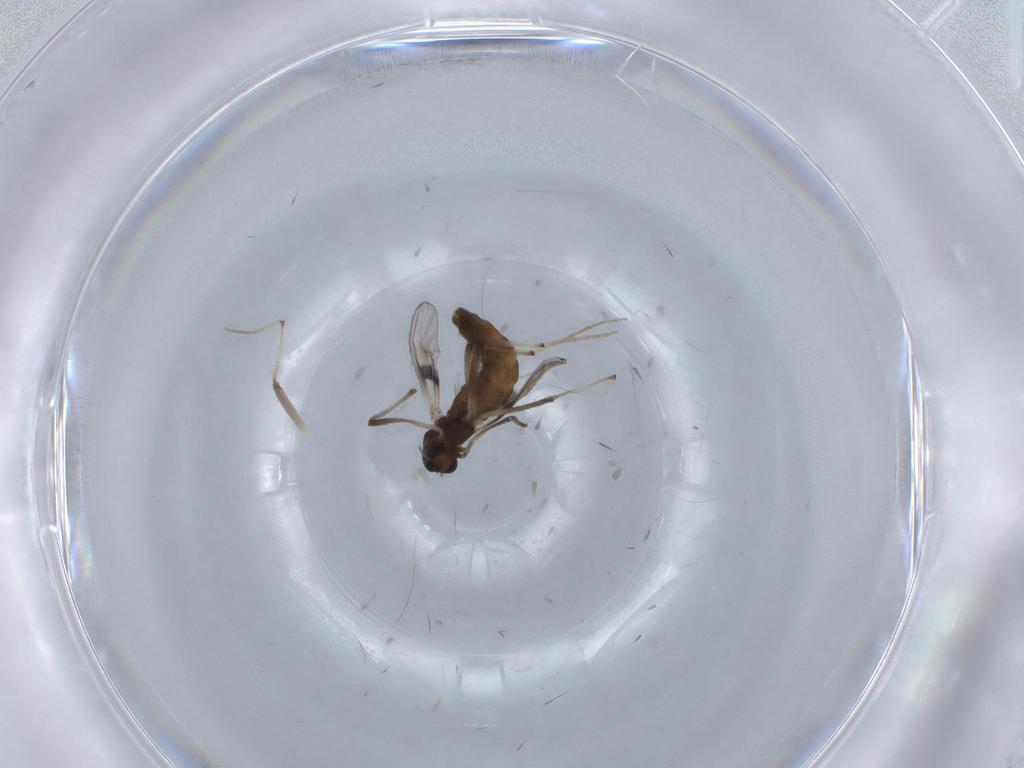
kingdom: Animalia
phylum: Arthropoda
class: Insecta
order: Diptera
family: Chironomidae
